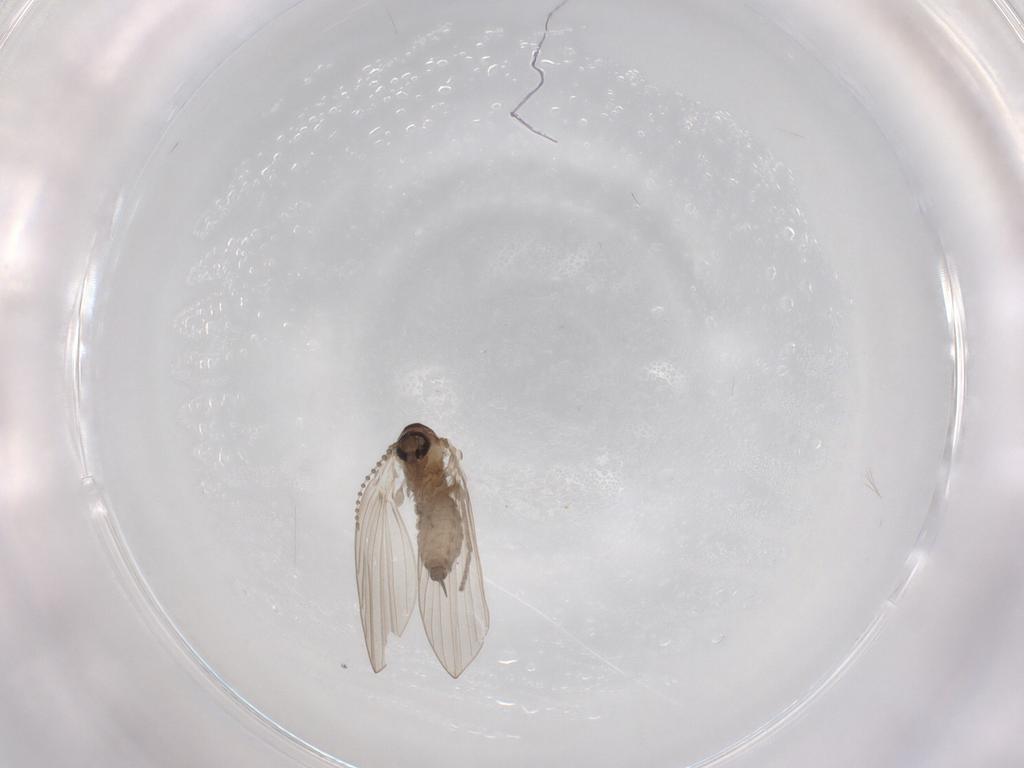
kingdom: Animalia
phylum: Arthropoda
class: Insecta
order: Diptera
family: Sphaeroceridae
